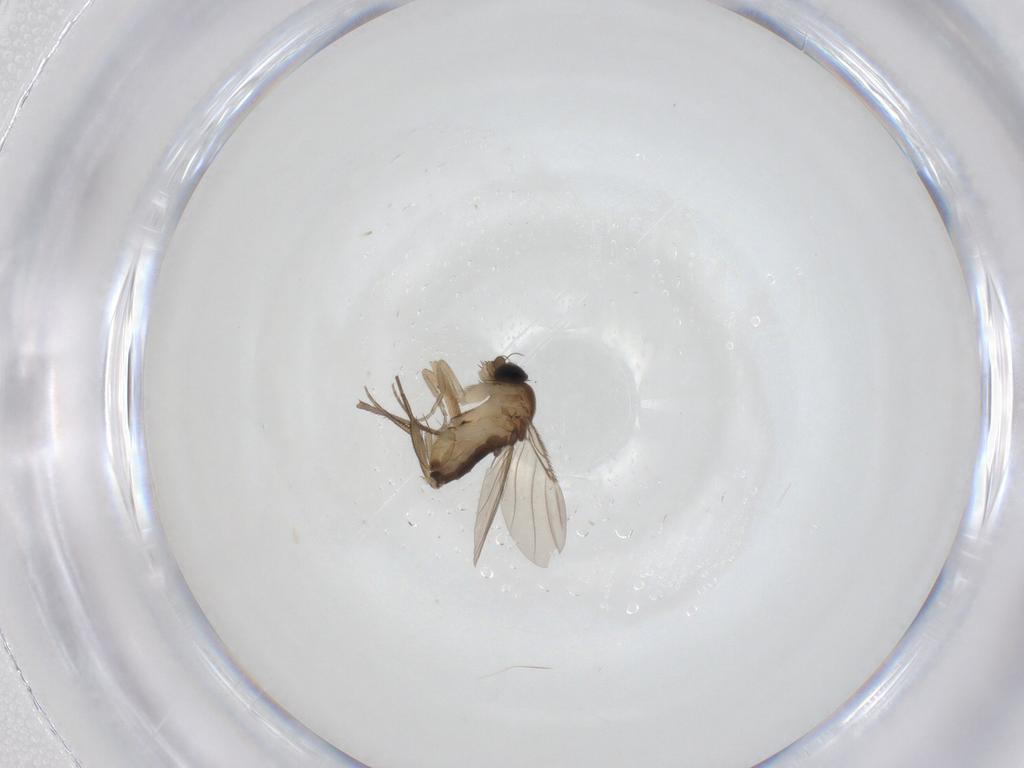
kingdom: Animalia
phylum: Arthropoda
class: Insecta
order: Diptera
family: Phoridae
